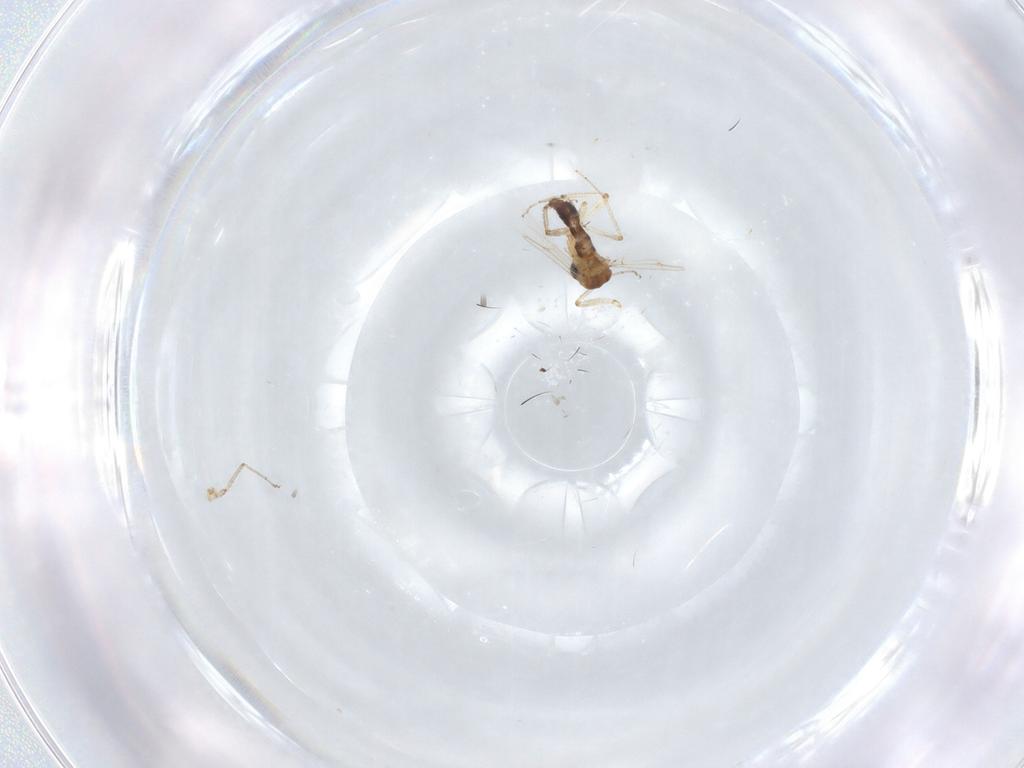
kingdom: Animalia
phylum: Arthropoda
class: Insecta
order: Diptera
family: Ceratopogonidae
